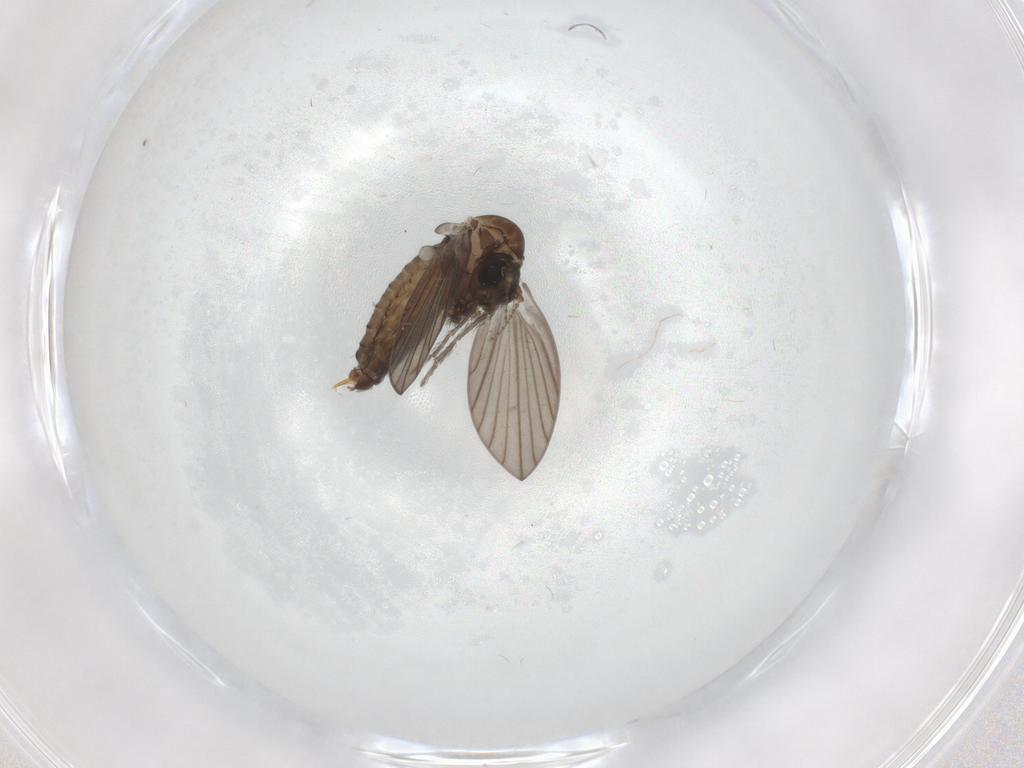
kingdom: Animalia
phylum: Arthropoda
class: Insecta
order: Diptera
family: Psychodidae
